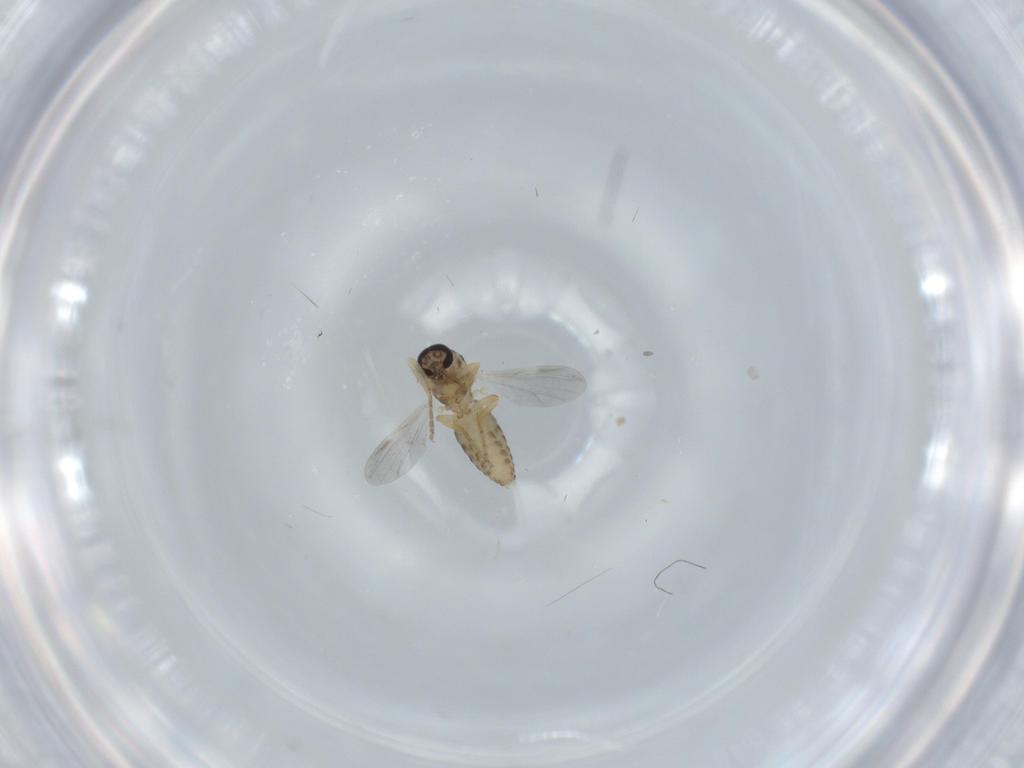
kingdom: Animalia
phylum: Arthropoda
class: Insecta
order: Diptera
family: Ceratopogonidae
